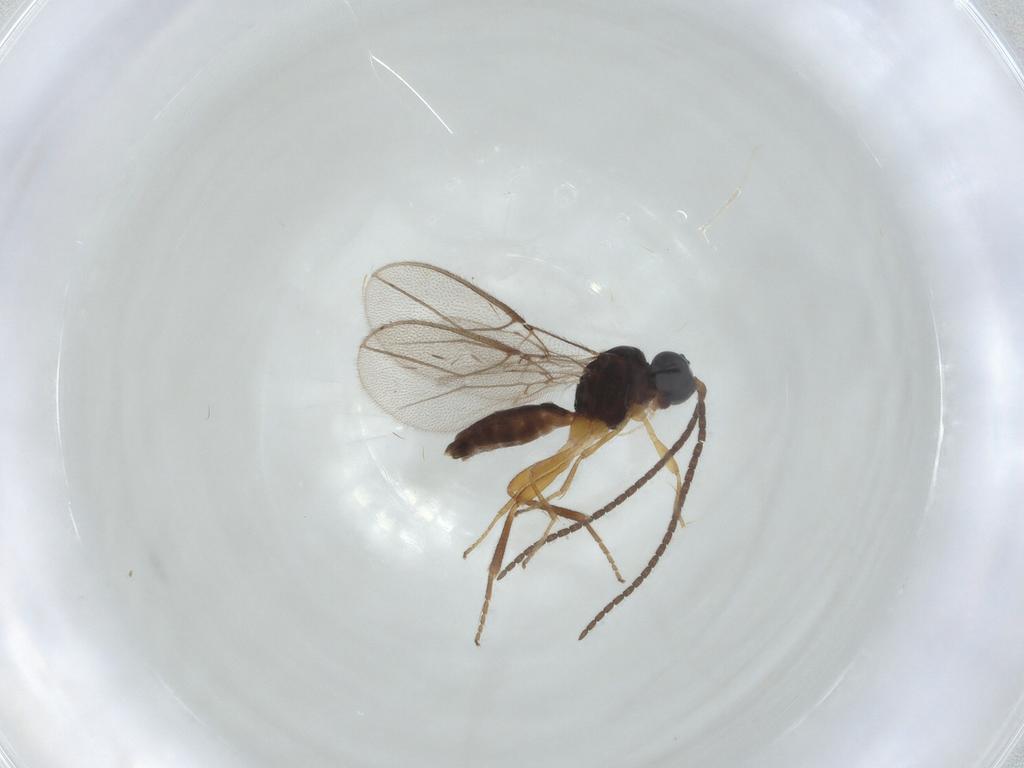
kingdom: Animalia
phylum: Arthropoda
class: Insecta
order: Hymenoptera
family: Braconidae
